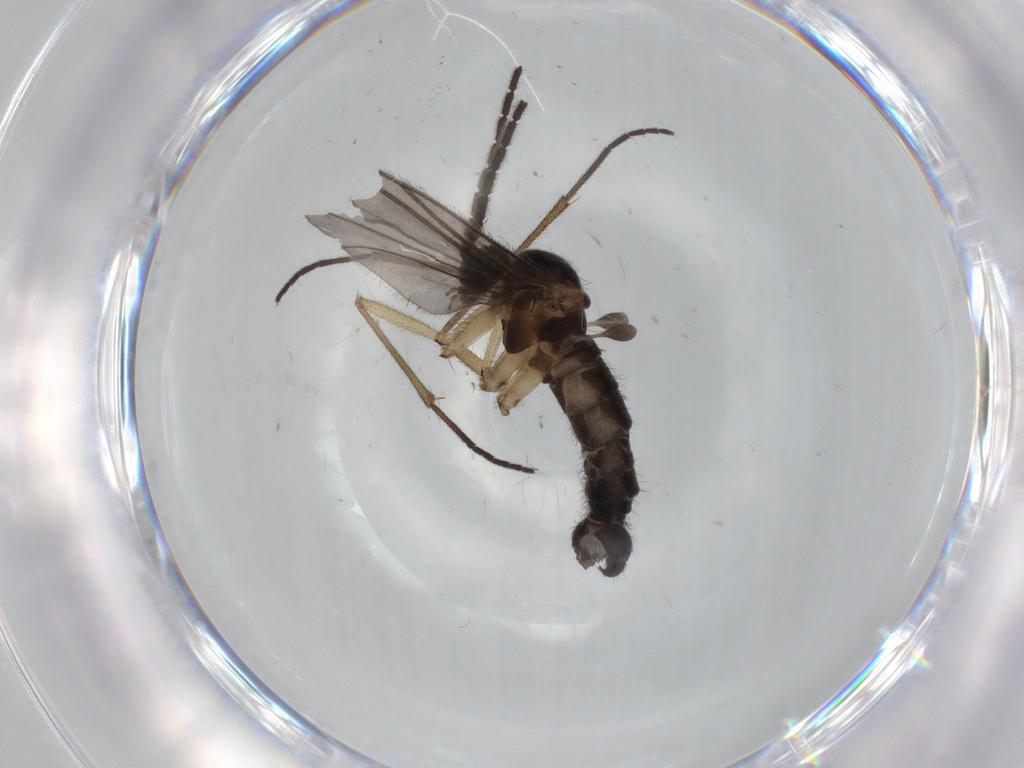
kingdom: Animalia
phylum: Arthropoda
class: Insecta
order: Diptera
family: Sciaridae
